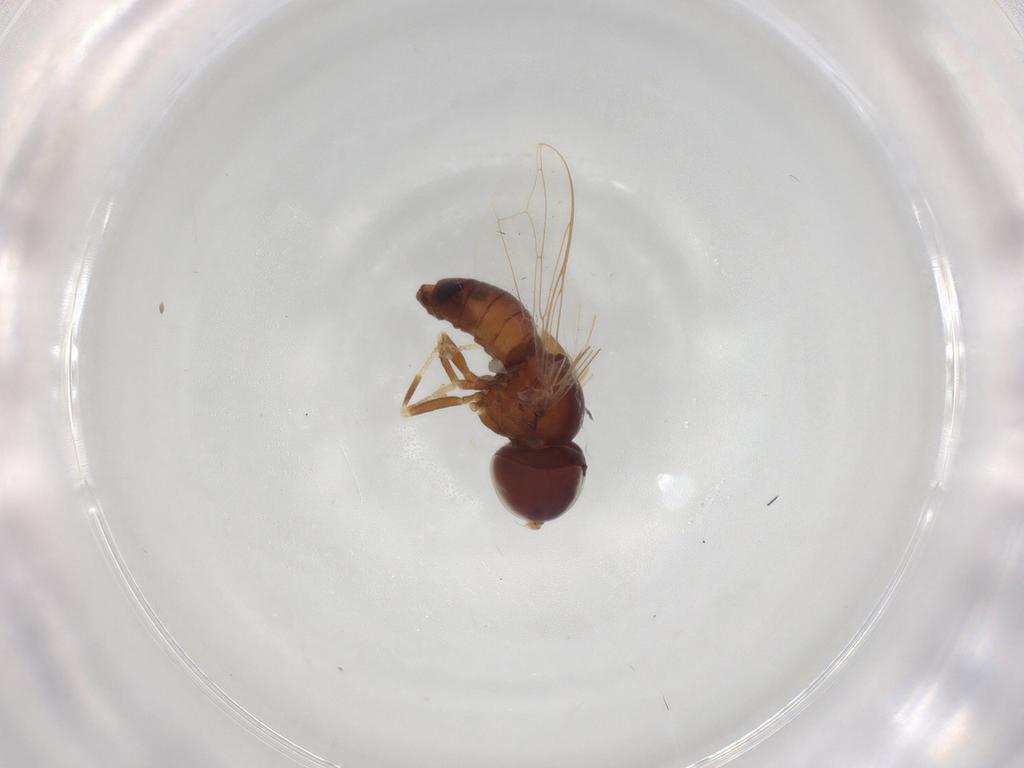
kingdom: Animalia
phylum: Arthropoda
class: Insecta
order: Diptera
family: Pipunculidae
